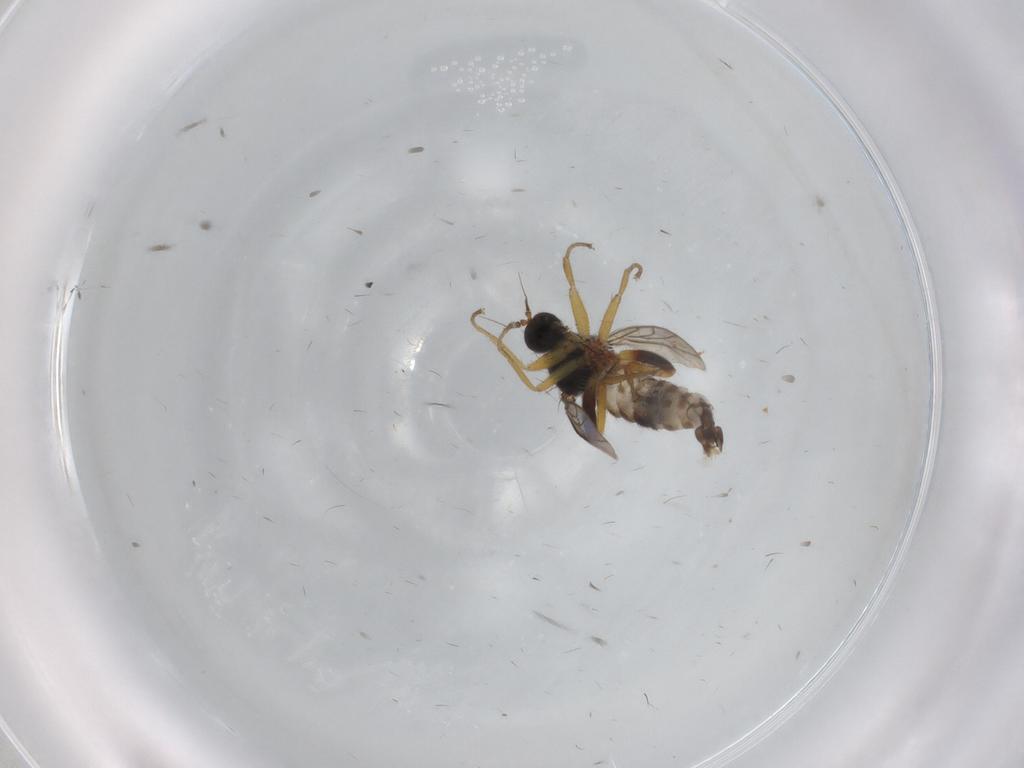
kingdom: Animalia
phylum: Arthropoda
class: Insecta
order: Diptera
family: Hybotidae
